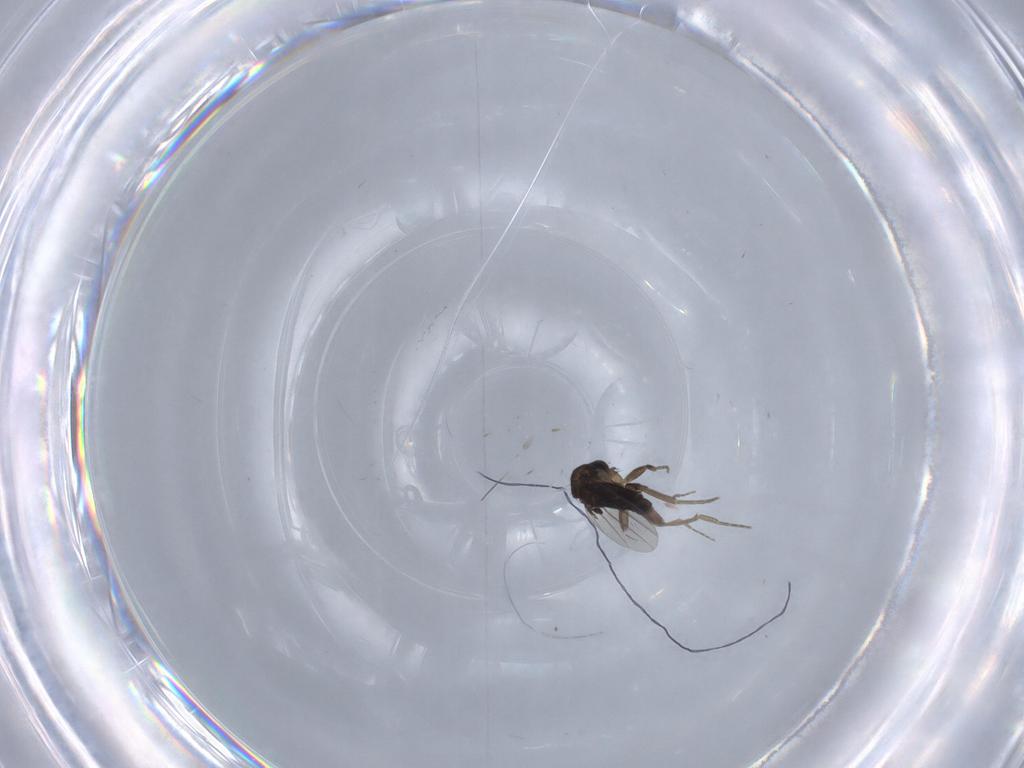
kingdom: Animalia
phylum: Arthropoda
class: Insecta
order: Diptera
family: Phoridae
